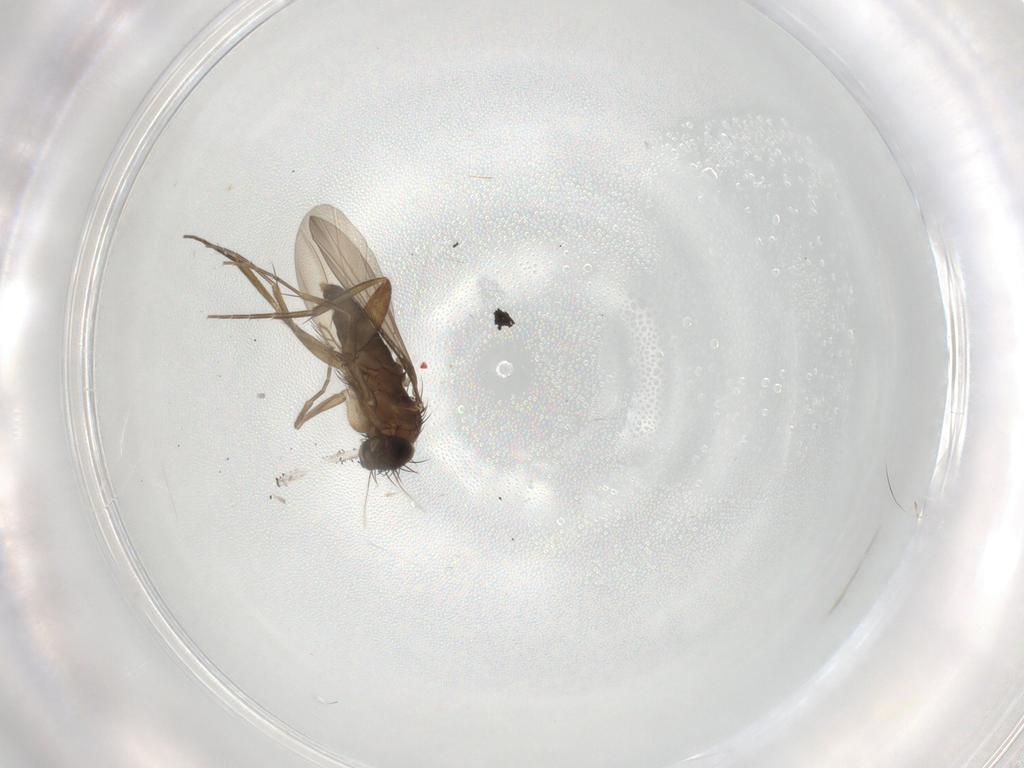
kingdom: Animalia
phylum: Arthropoda
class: Insecta
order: Diptera
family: Phoridae
